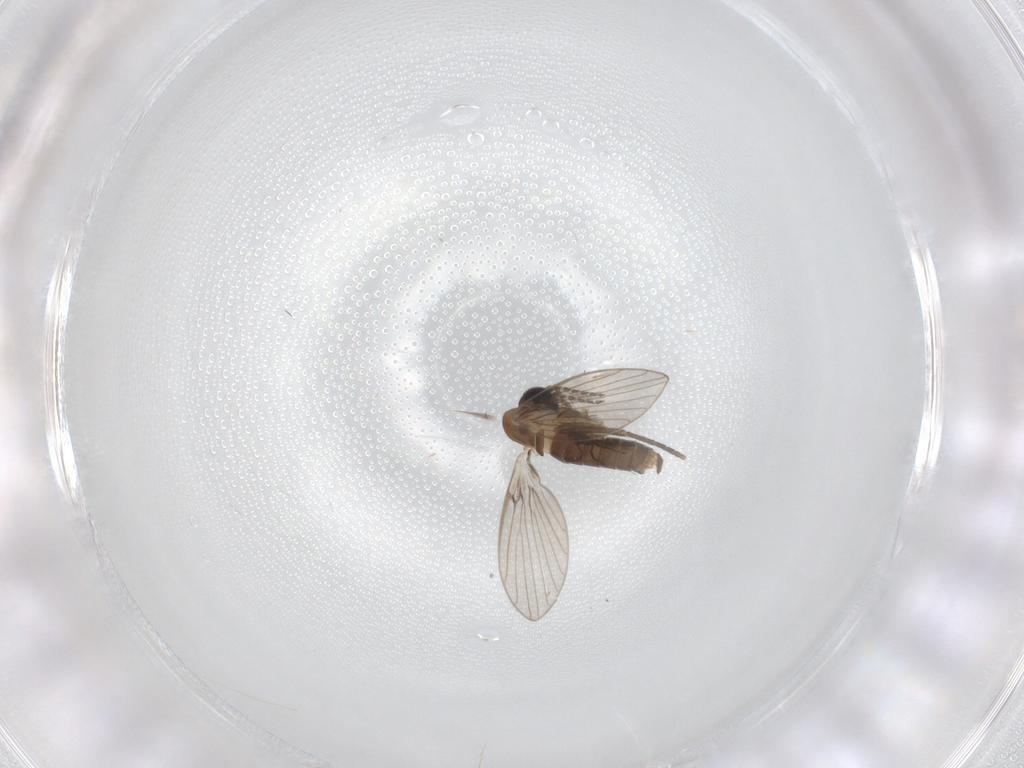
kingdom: Animalia
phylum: Arthropoda
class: Insecta
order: Diptera
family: Psychodidae
